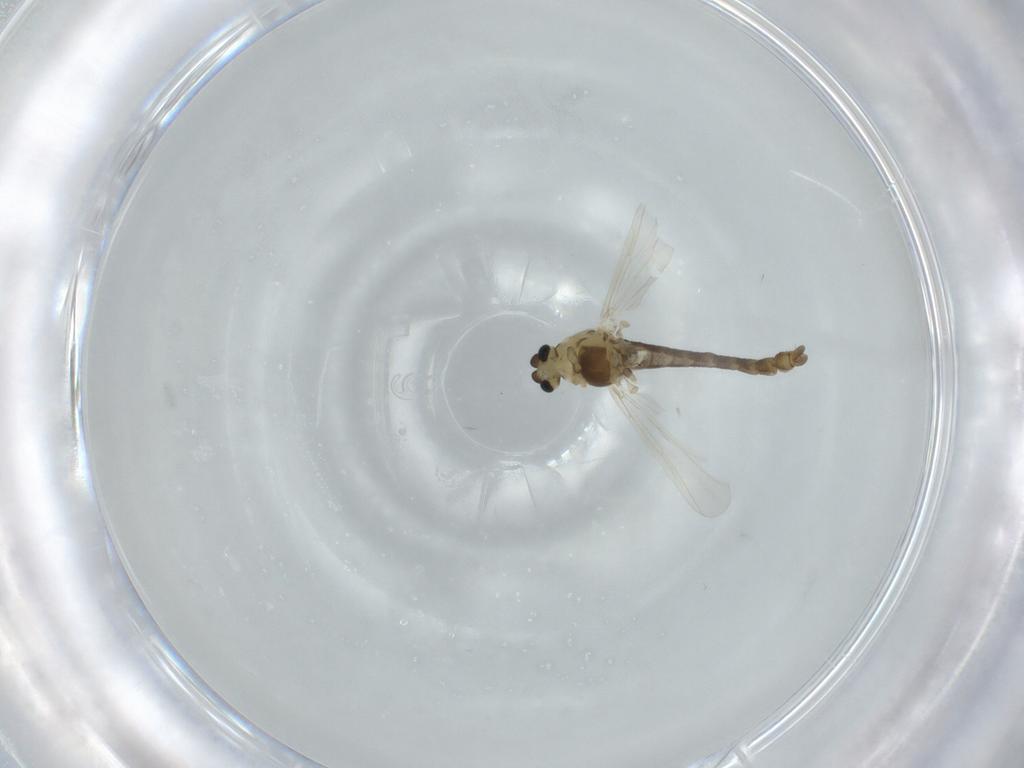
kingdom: Animalia
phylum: Arthropoda
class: Insecta
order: Diptera
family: Chironomidae
